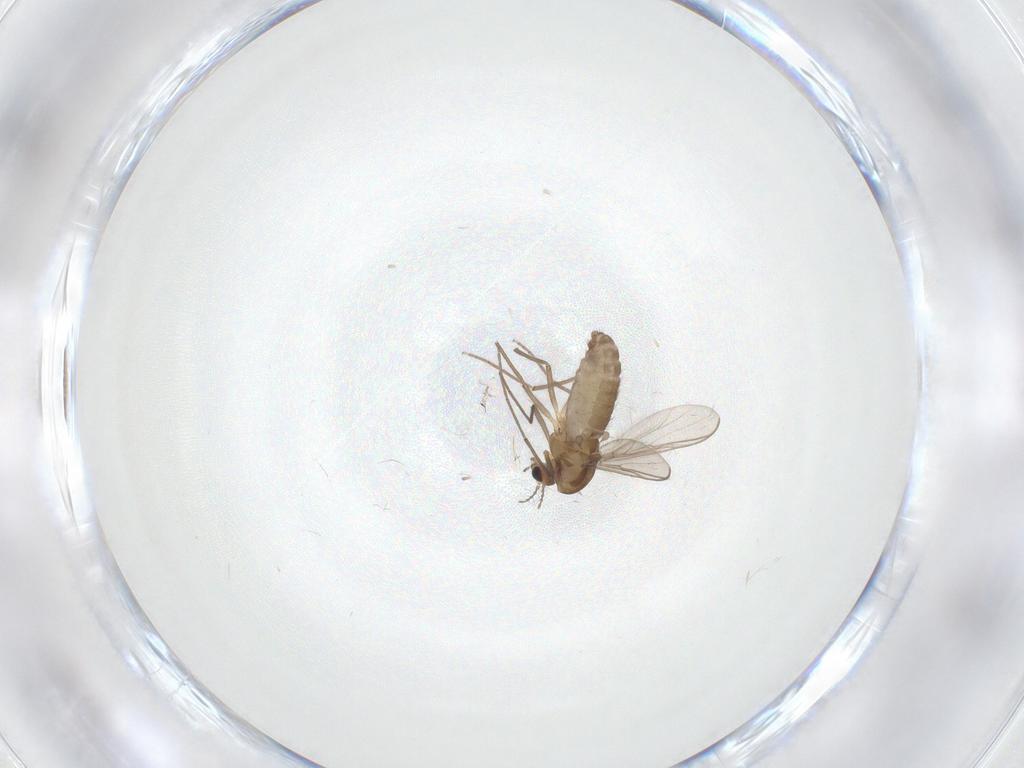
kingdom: Animalia
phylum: Arthropoda
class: Insecta
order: Diptera
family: Chironomidae
